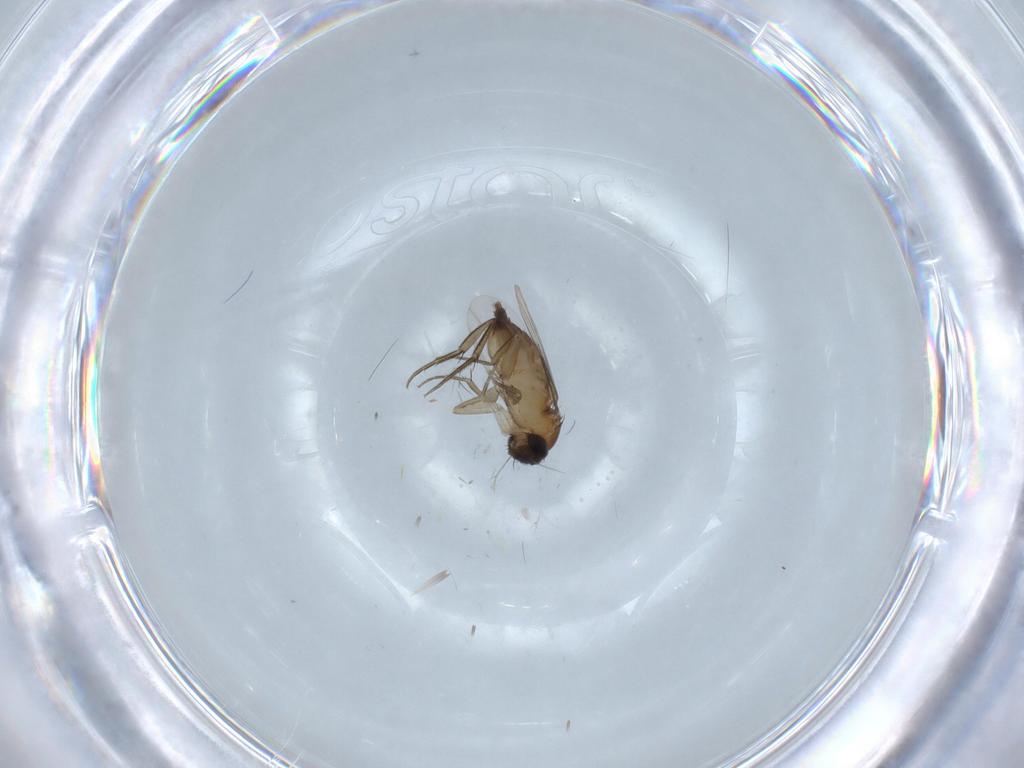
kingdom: Animalia
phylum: Arthropoda
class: Insecta
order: Diptera
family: Phoridae
